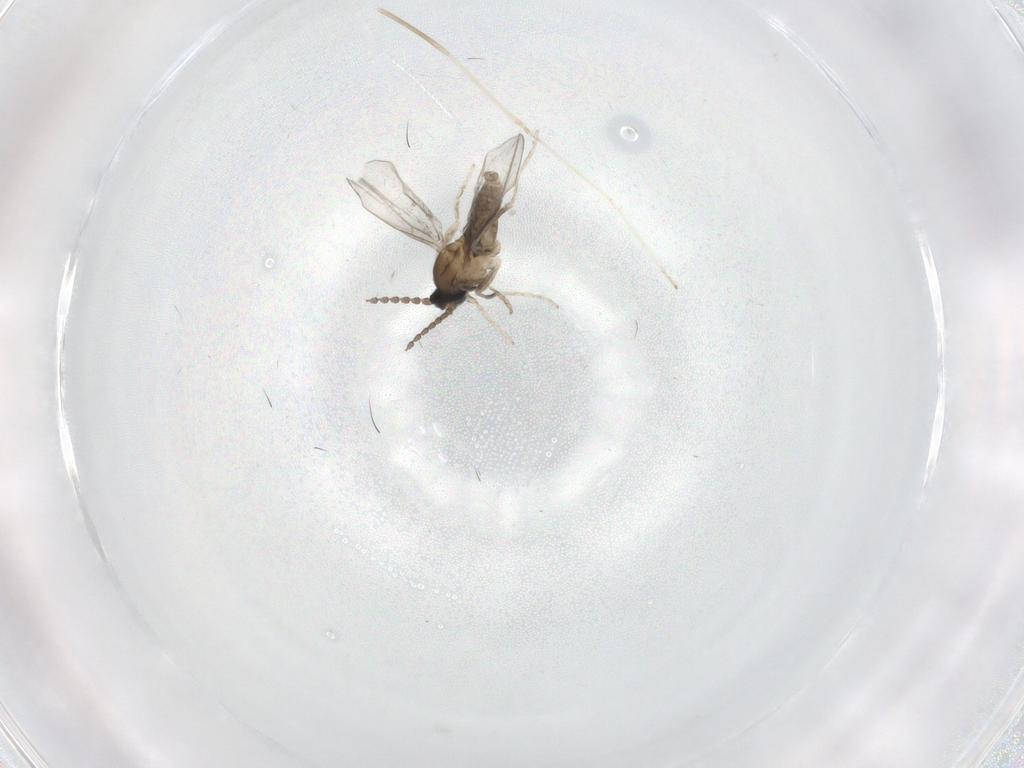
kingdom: Animalia
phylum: Arthropoda
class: Insecta
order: Diptera
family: Cecidomyiidae
